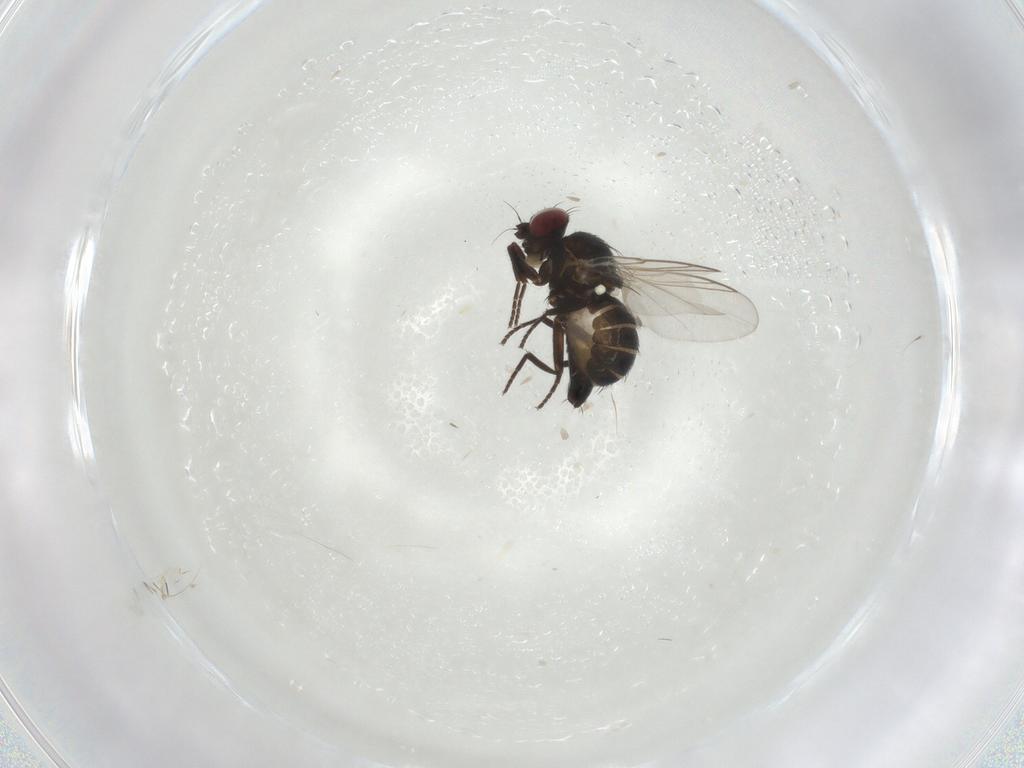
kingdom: Animalia
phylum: Arthropoda
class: Insecta
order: Diptera
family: Agromyzidae
